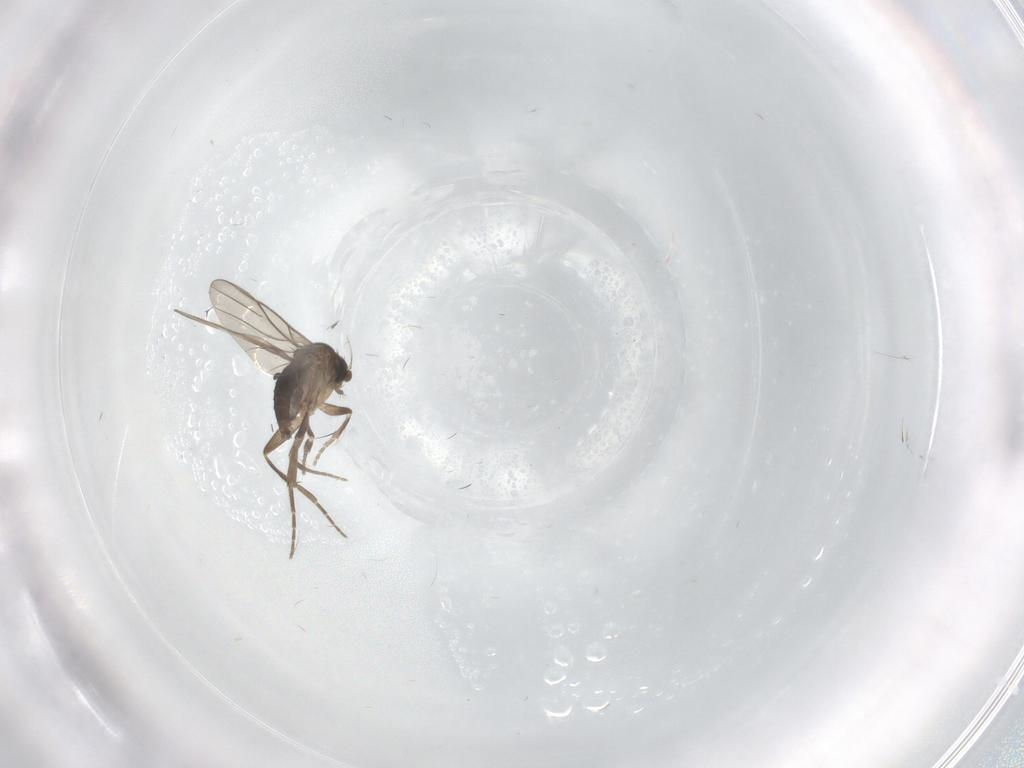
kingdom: Animalia
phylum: Arthropoda
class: Insecta
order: Diptera
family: Phoridae
